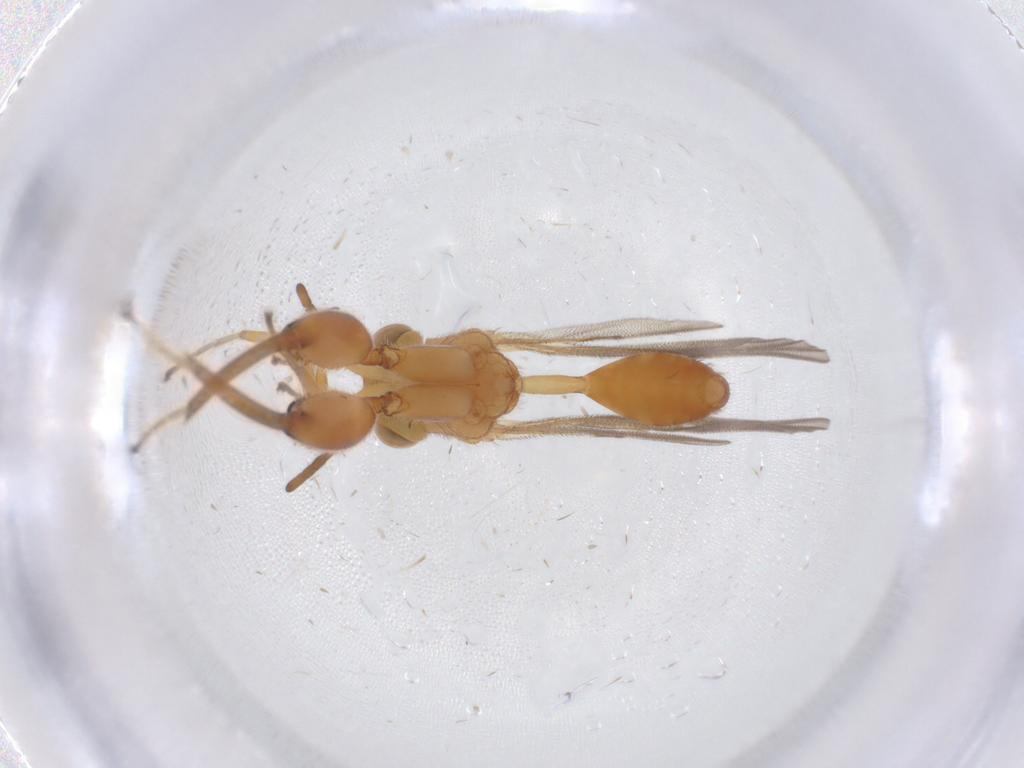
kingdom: Animalia
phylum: Arthropoda
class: Insecta
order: Hymenoptera
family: Chalcididae
